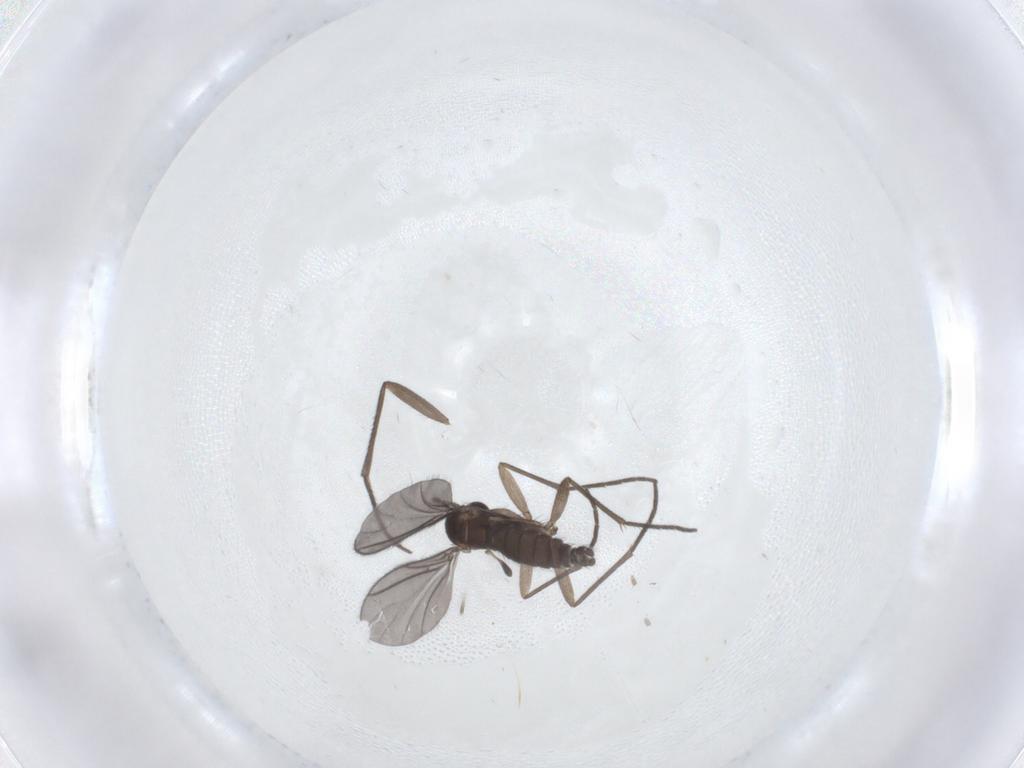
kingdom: Animalia
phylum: Arthropoda
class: Insecta
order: Diptera
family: Sciaridae
